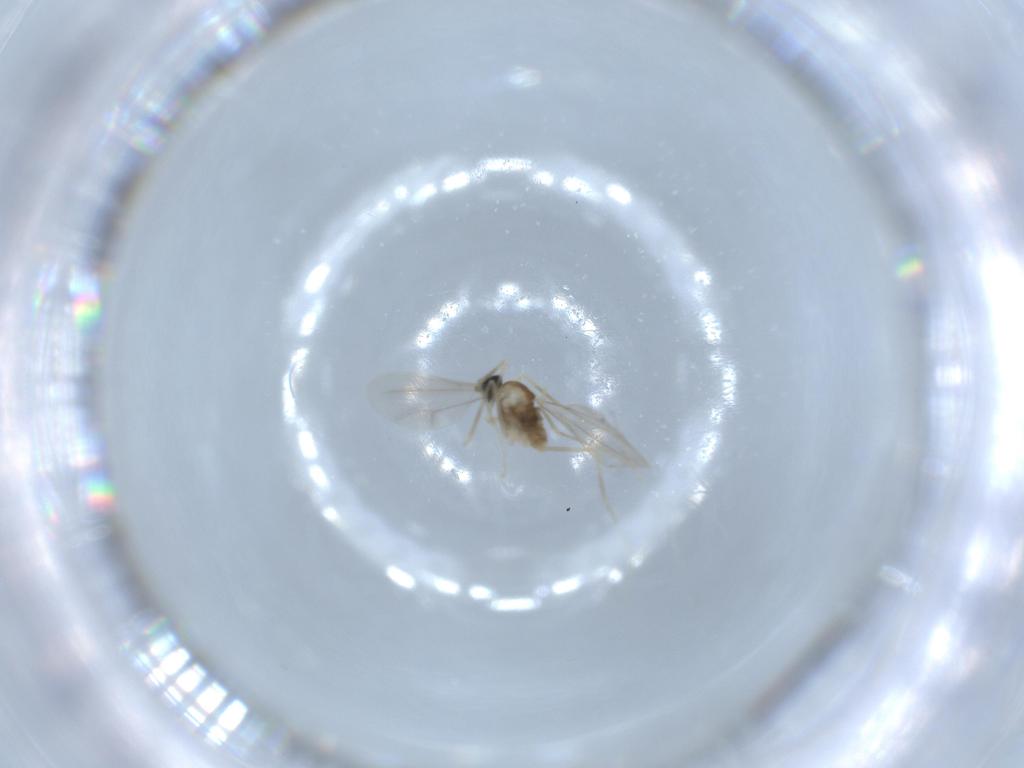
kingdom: Animalia
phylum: Arthropoda
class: Insecta
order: Diptera
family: Cecidomyiidae
